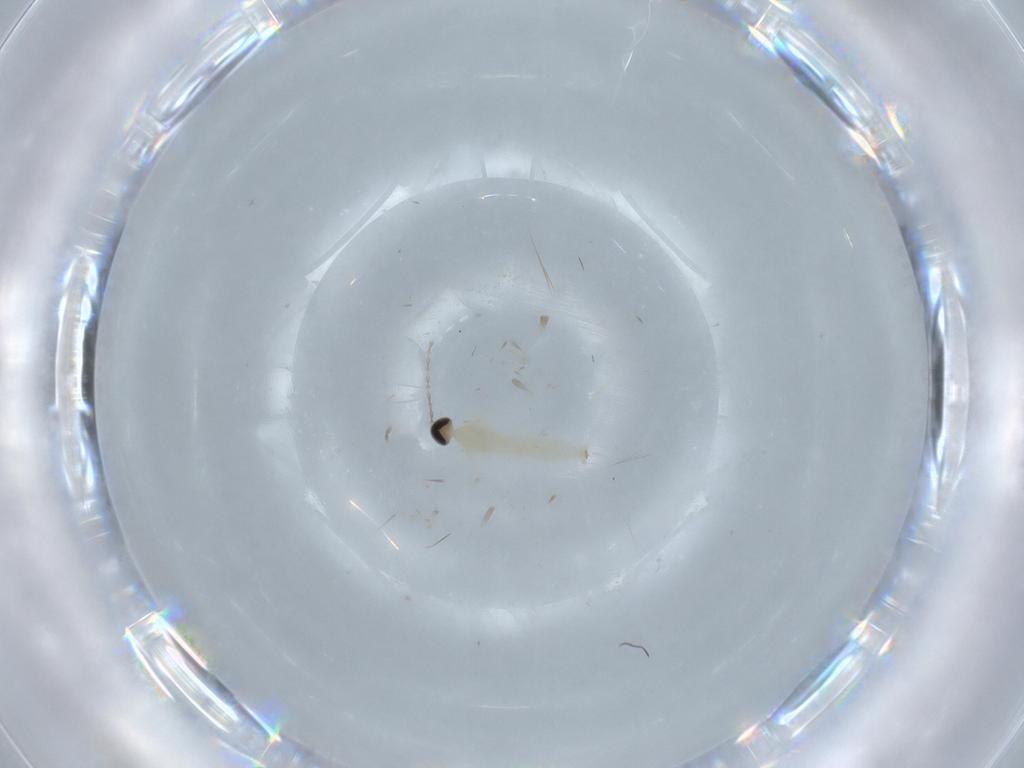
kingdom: Animalia
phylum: Arthropoda
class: Insecta
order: Diptera
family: Cecidomyiidae
